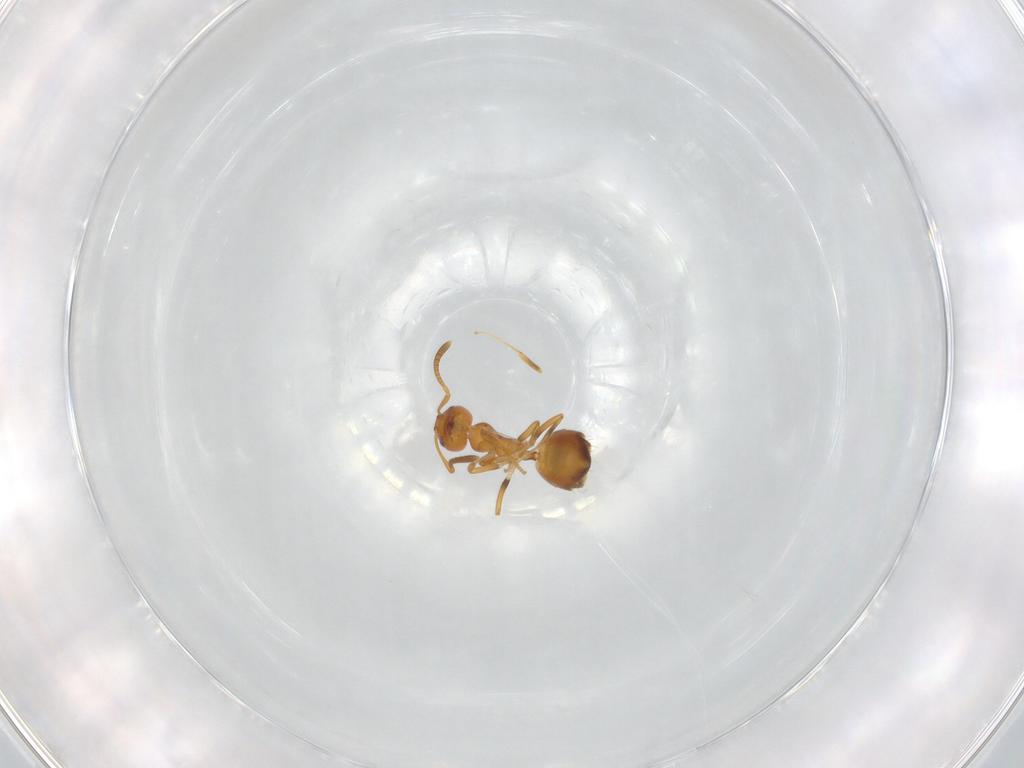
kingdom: Animalia
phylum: Arthropoda
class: Insecta
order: Hymenoptera
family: Formicidae
